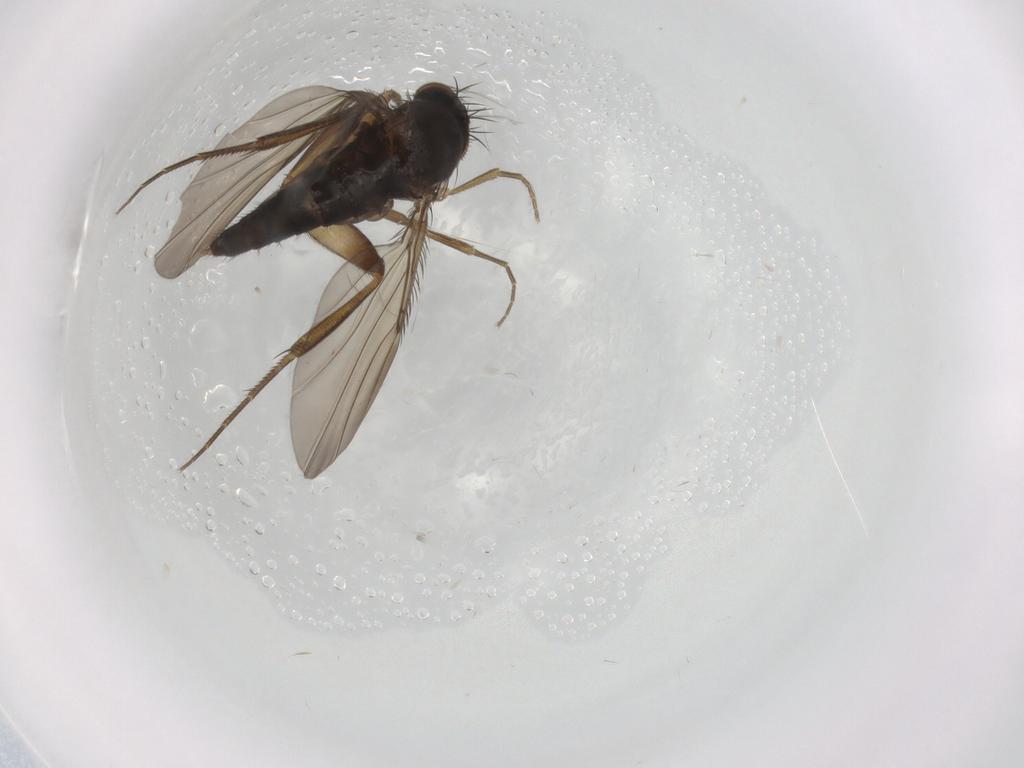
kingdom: Animalia
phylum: Arthropoda
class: Insecta
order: Diptera
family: Phoridae
